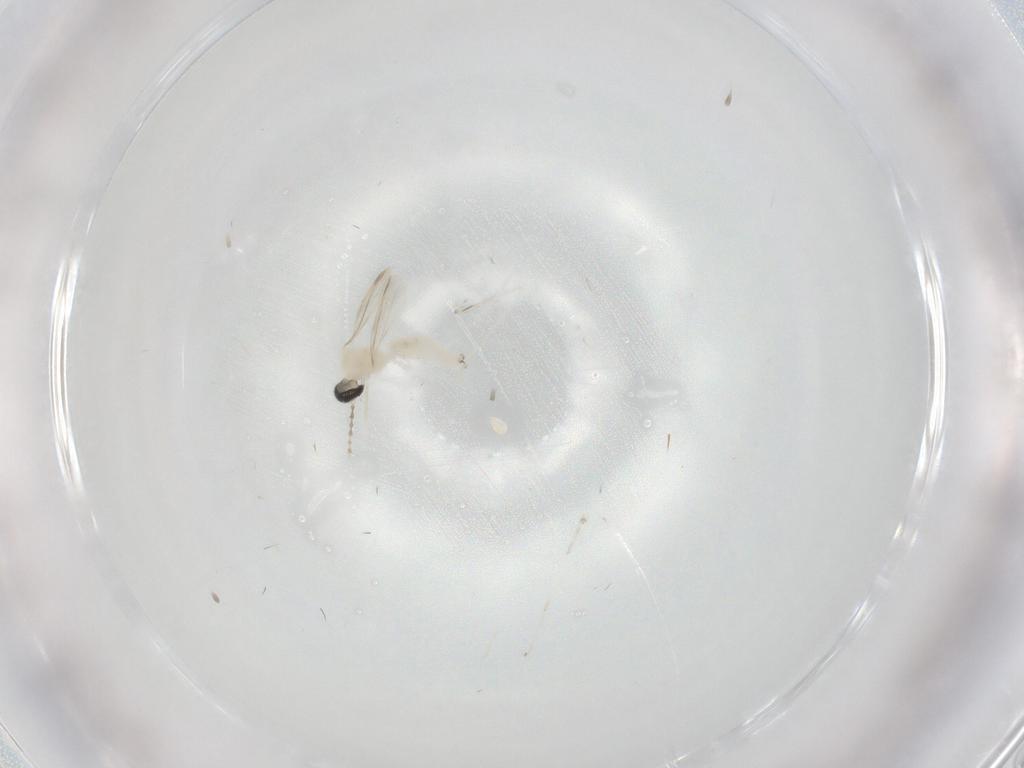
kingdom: Animalia
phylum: Arthropoda
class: Insecta
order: Diptera
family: Cecidomyiidae
